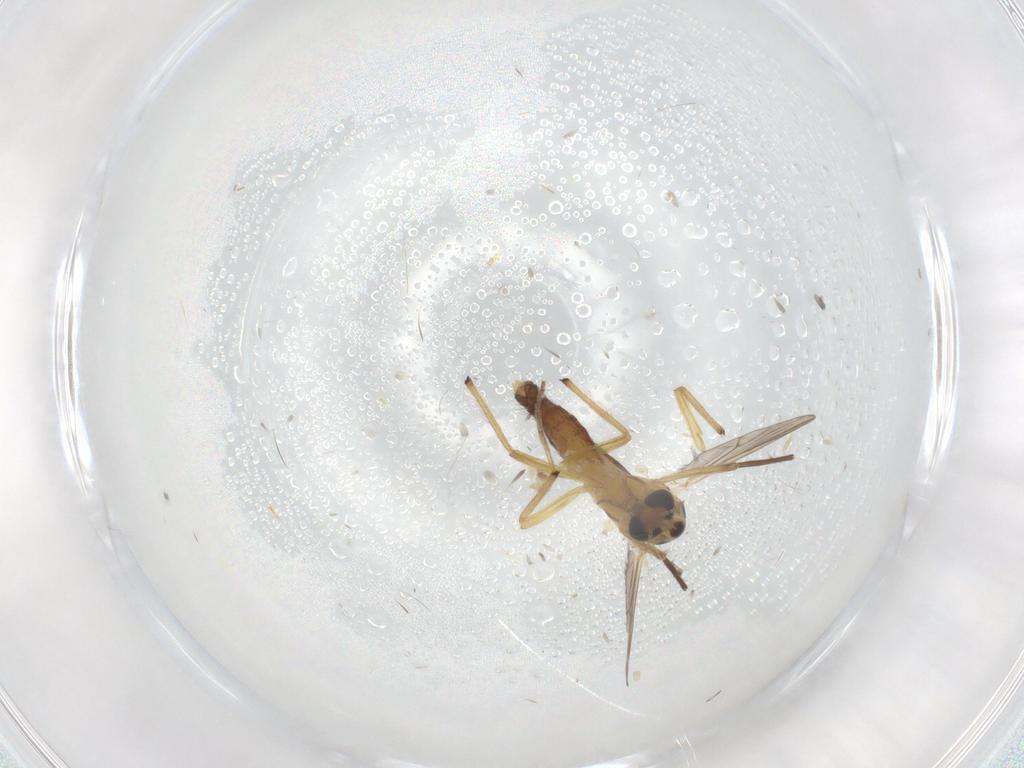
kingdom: Animalia
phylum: Arthropoda
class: Insecta
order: Diptera
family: Chironomidae
